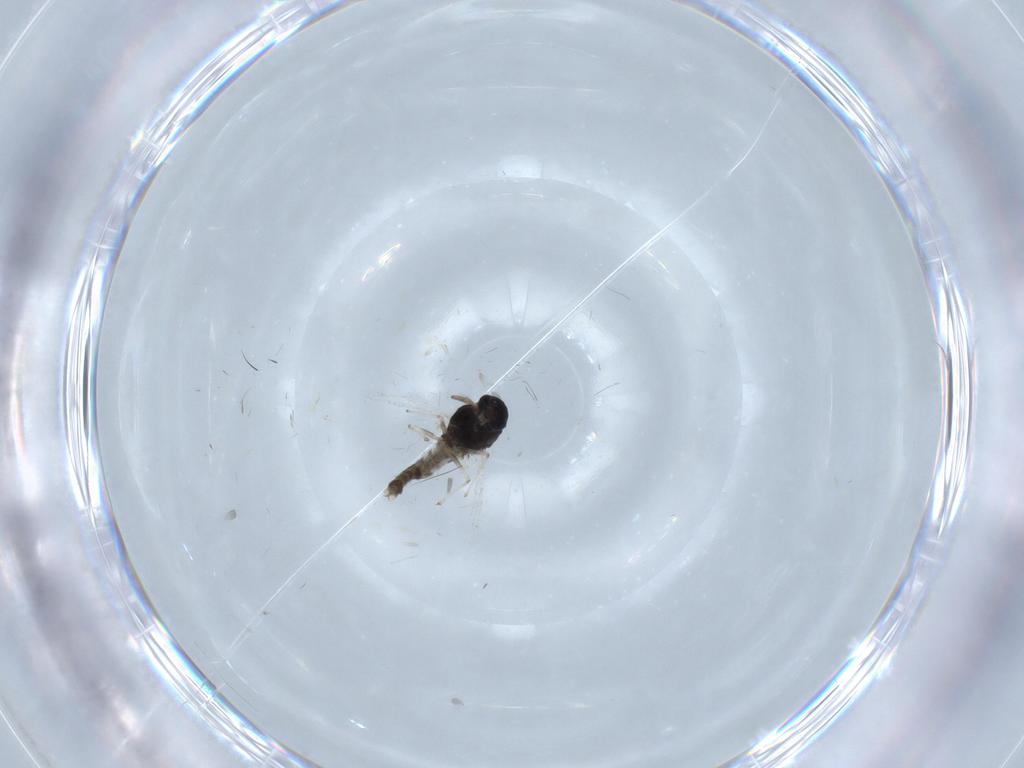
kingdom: Animalia
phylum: Arthropoda
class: Insecta
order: Diptera
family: Chironomidae
